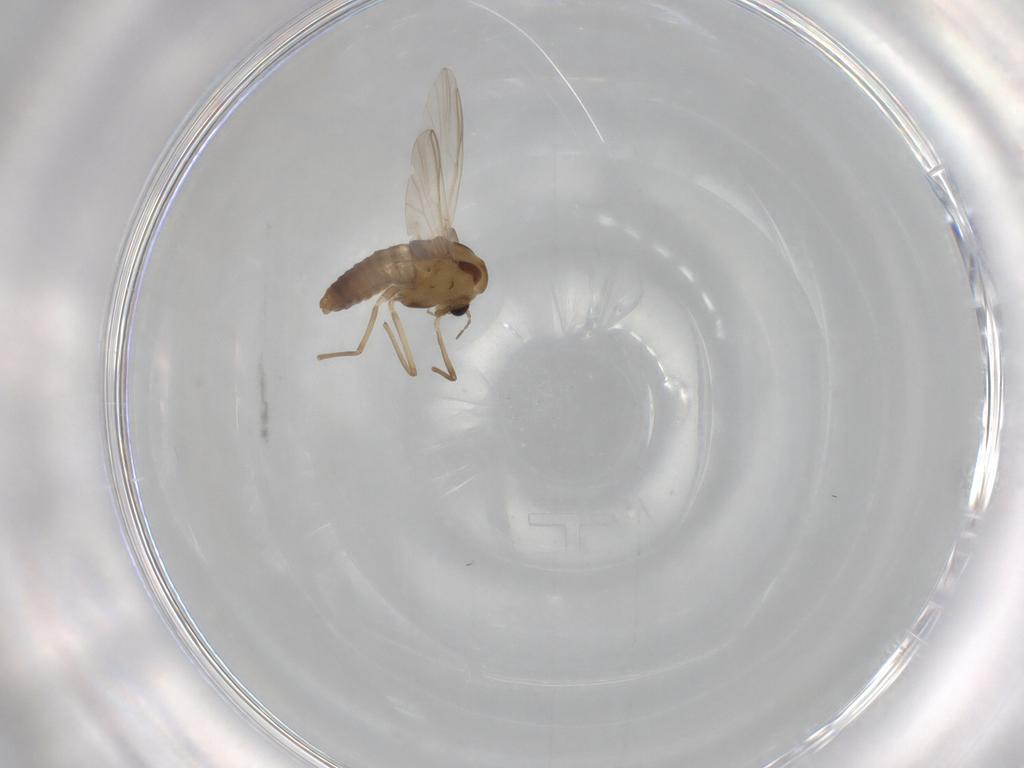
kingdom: Animalia
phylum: Arthropoda
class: Insecta
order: Diptera
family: Chironomidae
